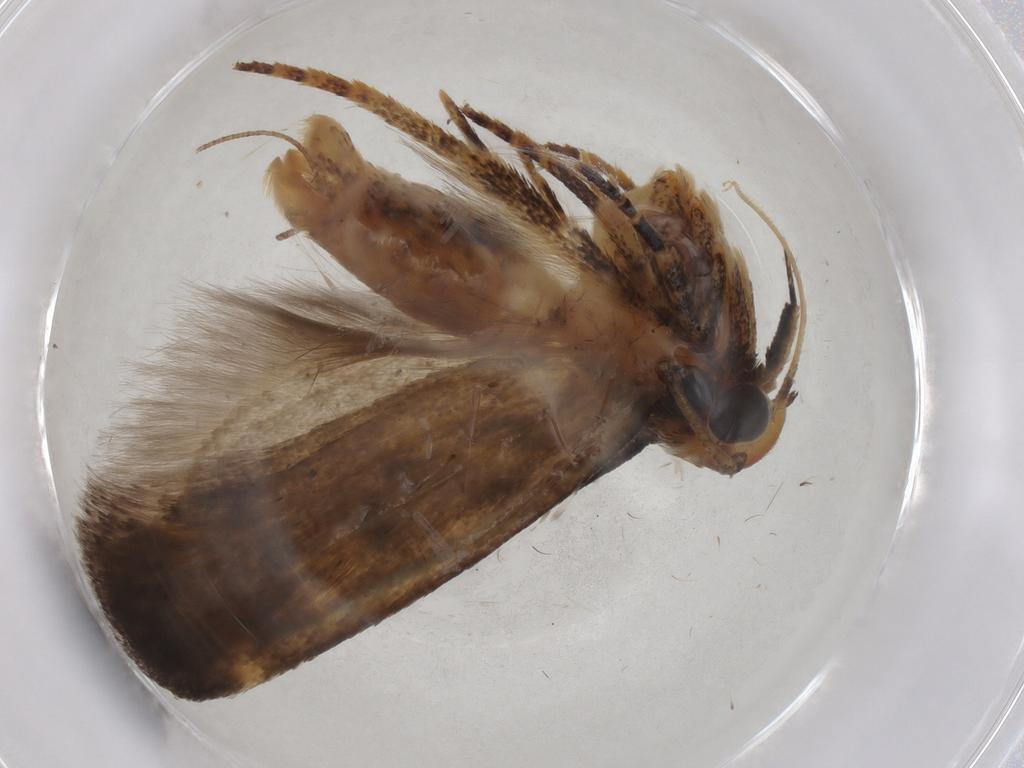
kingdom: Animalia
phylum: Arthropoda
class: Insecta
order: Lepidoptera
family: Gelechiidae
